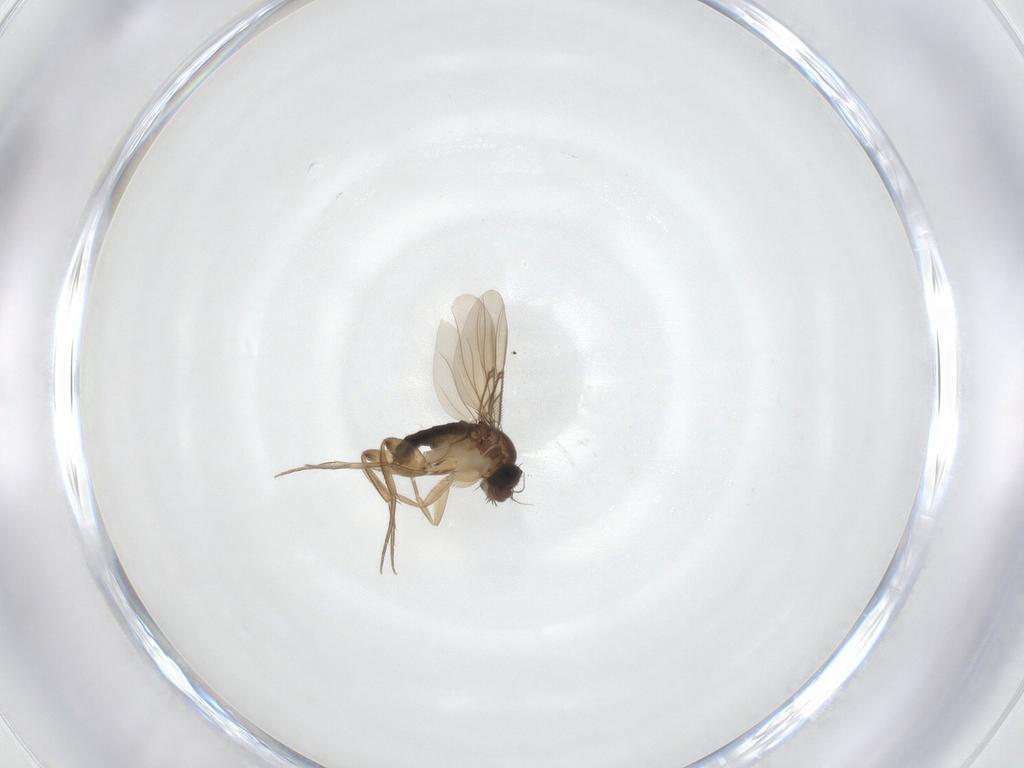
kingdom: Animalia
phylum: Arthropoda
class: Insecta
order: Diptera
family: Phoridae
